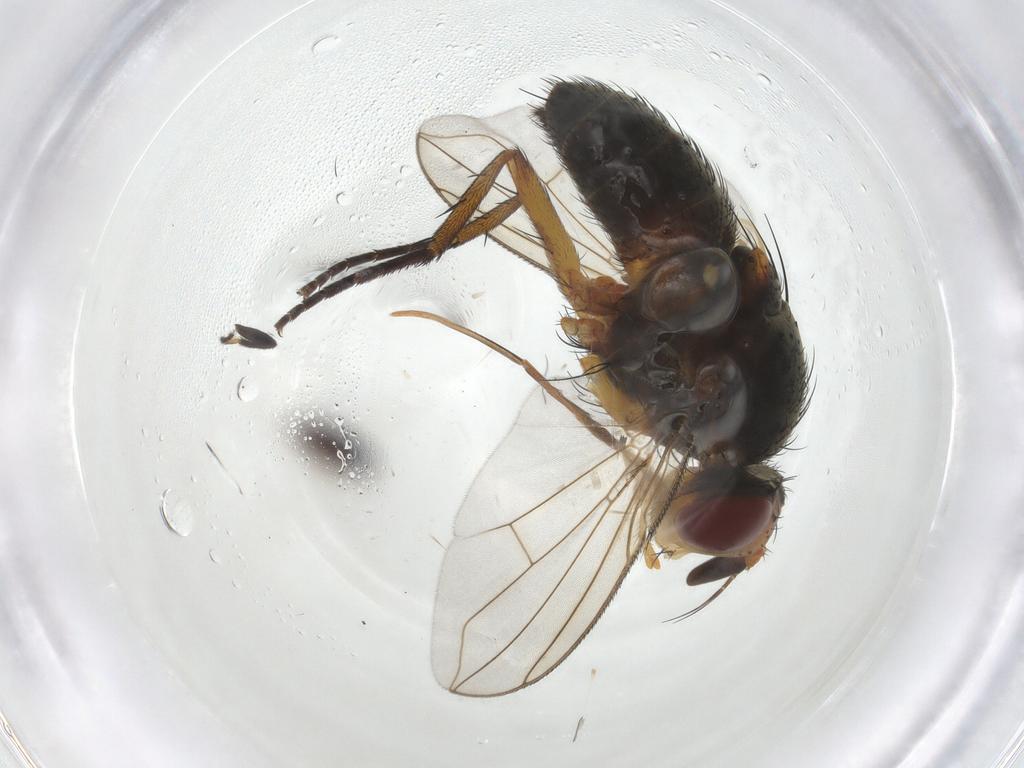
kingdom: Animalia
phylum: Arthropoda
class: Insecta
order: Diptera
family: Tachinidae
